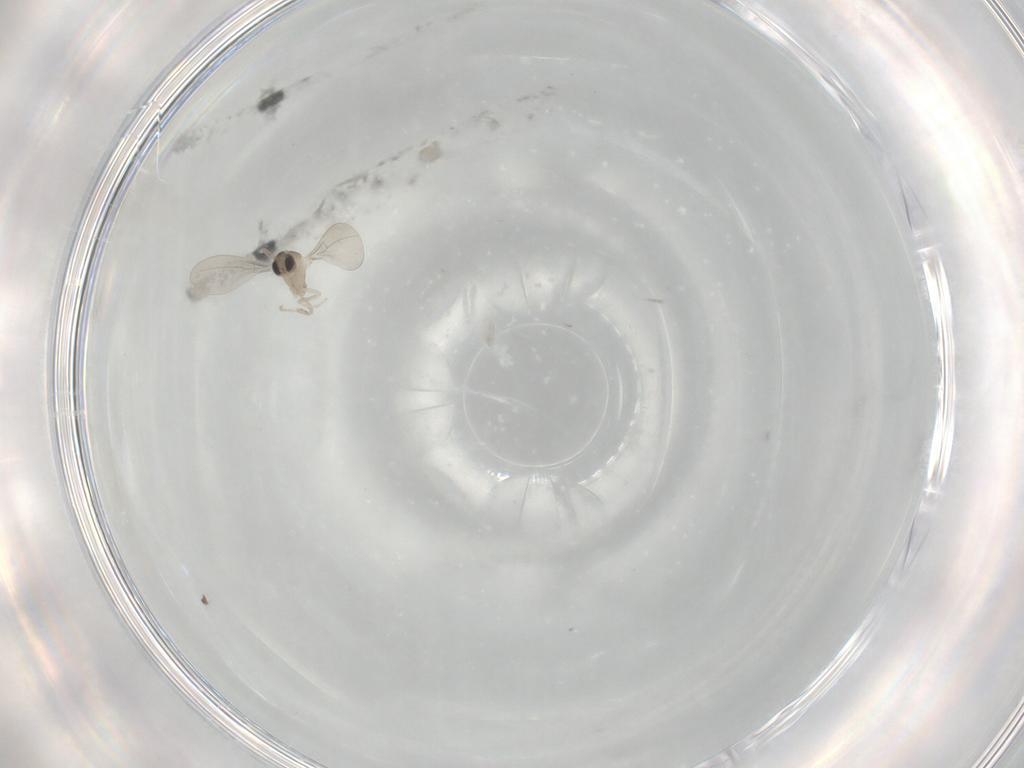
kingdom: Animalia
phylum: Arthropoda
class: Insecta
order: Diptera
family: Cecidomyiidae
